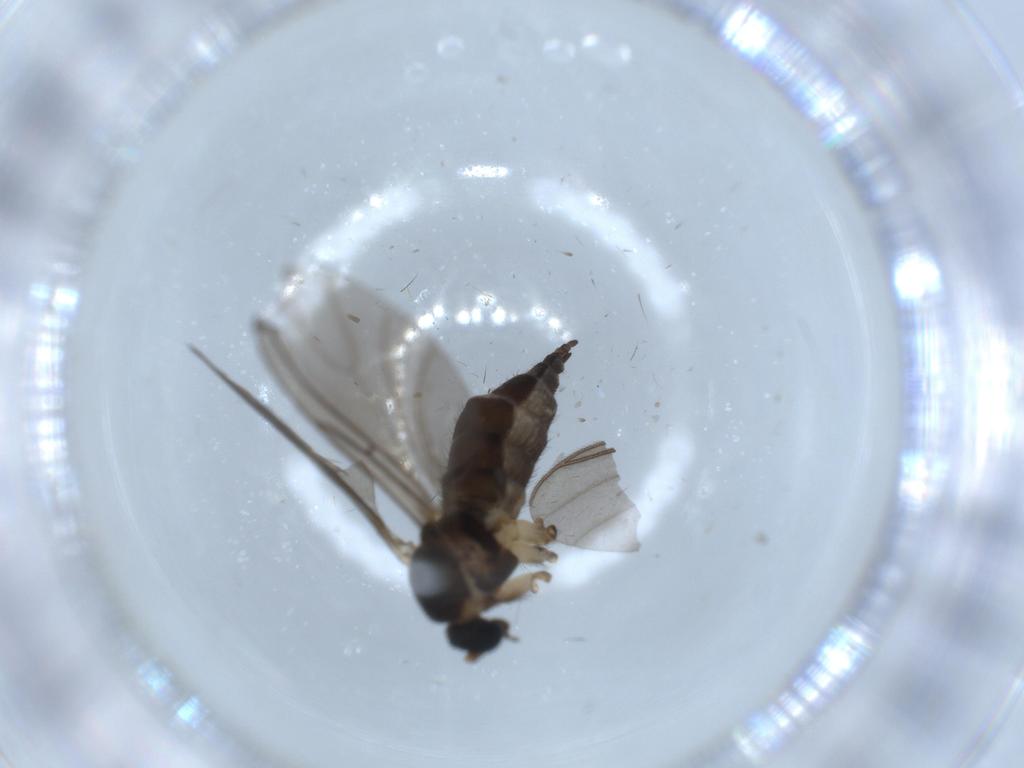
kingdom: Animalia
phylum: Arthropoda
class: Insecta
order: Diptera
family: Sciaridae
